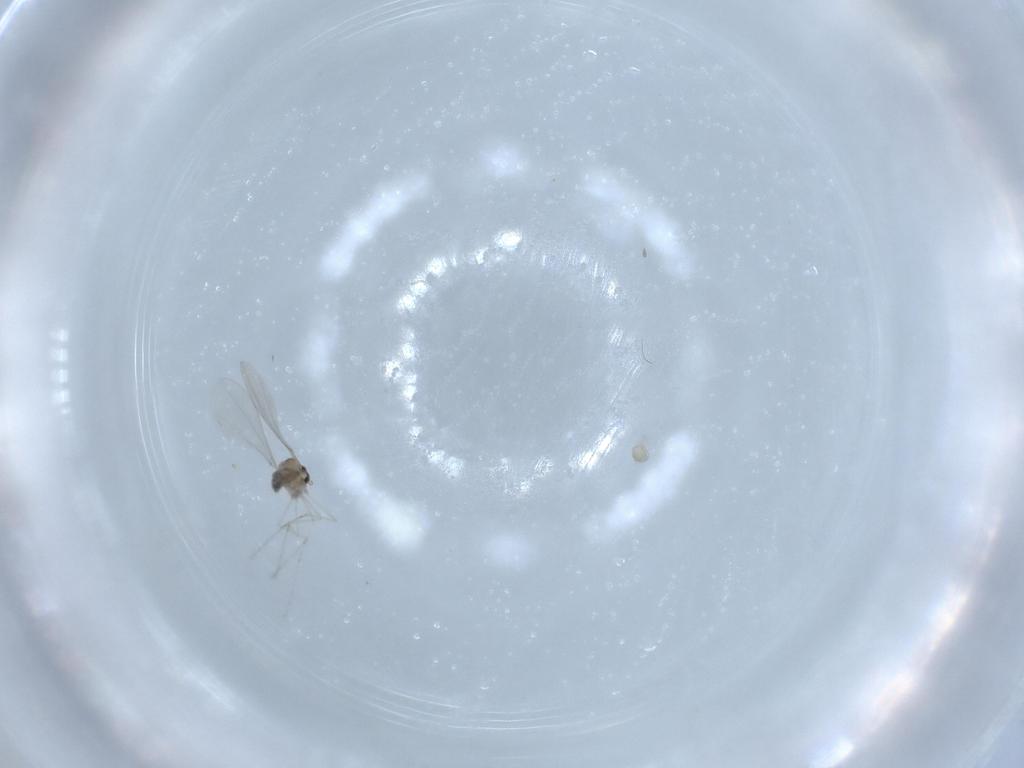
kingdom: Animalia
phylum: Arthropoda
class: Insecta
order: Diptera
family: Cecidomyiidae
